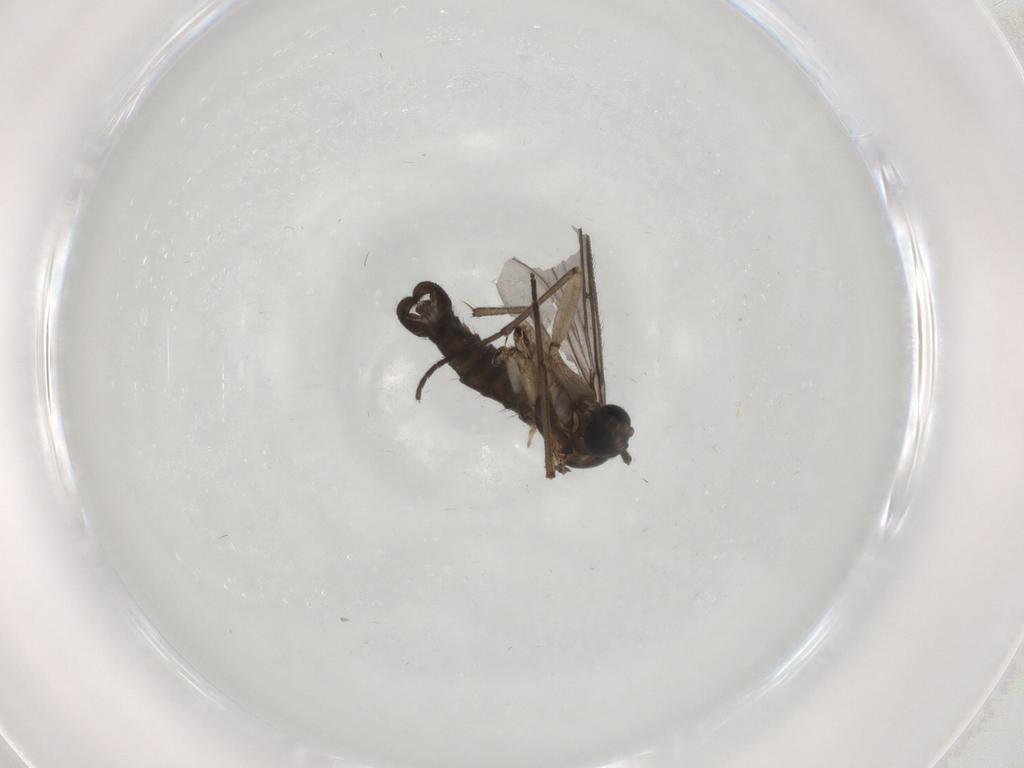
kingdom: Animalia
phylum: Arthropoda
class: Insecta
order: Diptera
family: Sciaridae
